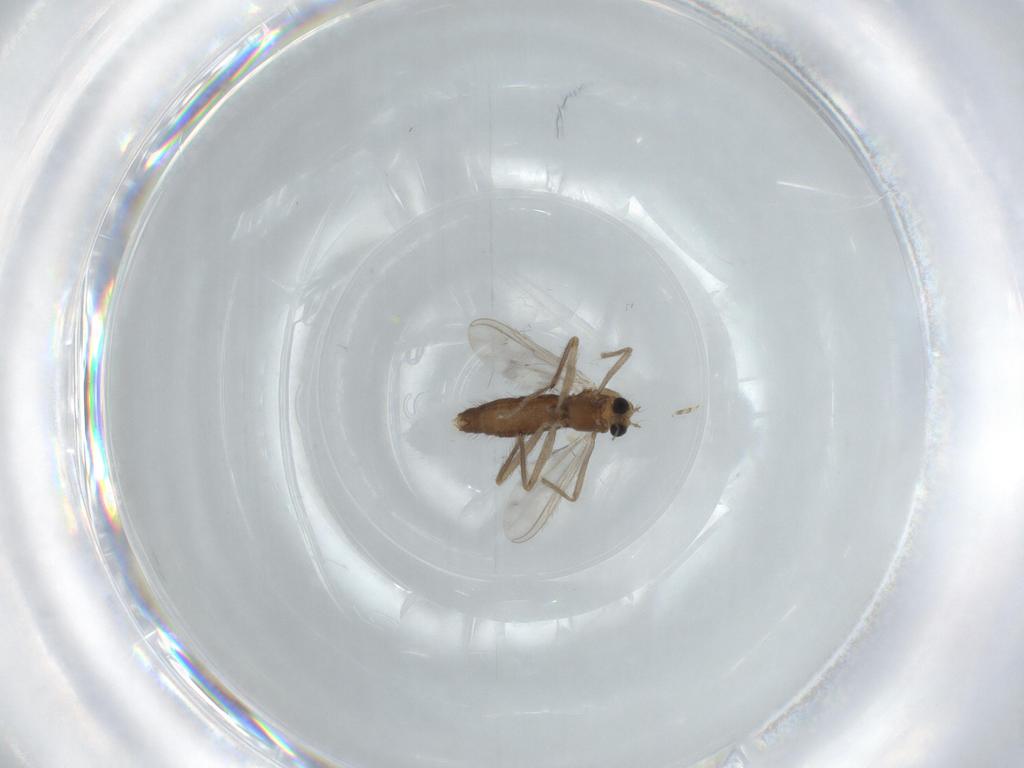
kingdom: Animalia
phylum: Arthropoda
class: Insecta
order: Diptera
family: Chironomidae
